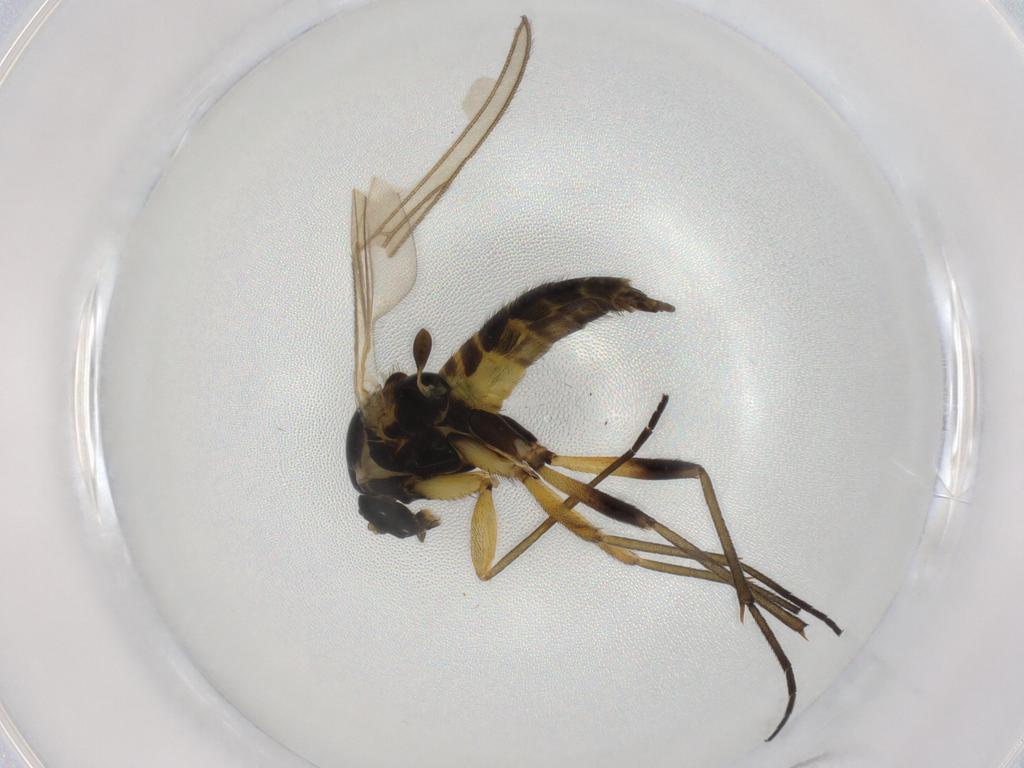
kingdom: Animalia
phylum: Arthropoda
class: Insecta
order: Diptera
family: Sciaridae
